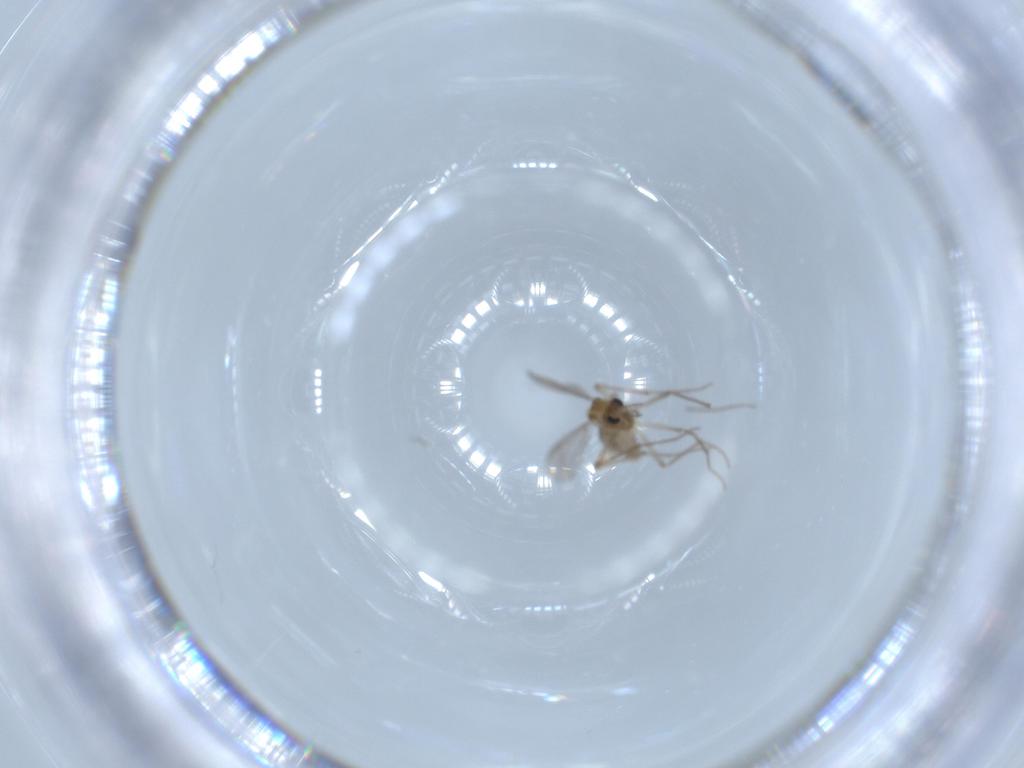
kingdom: Animalia
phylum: Arthropoda
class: Insecta
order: Diptera
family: Chironomidae
